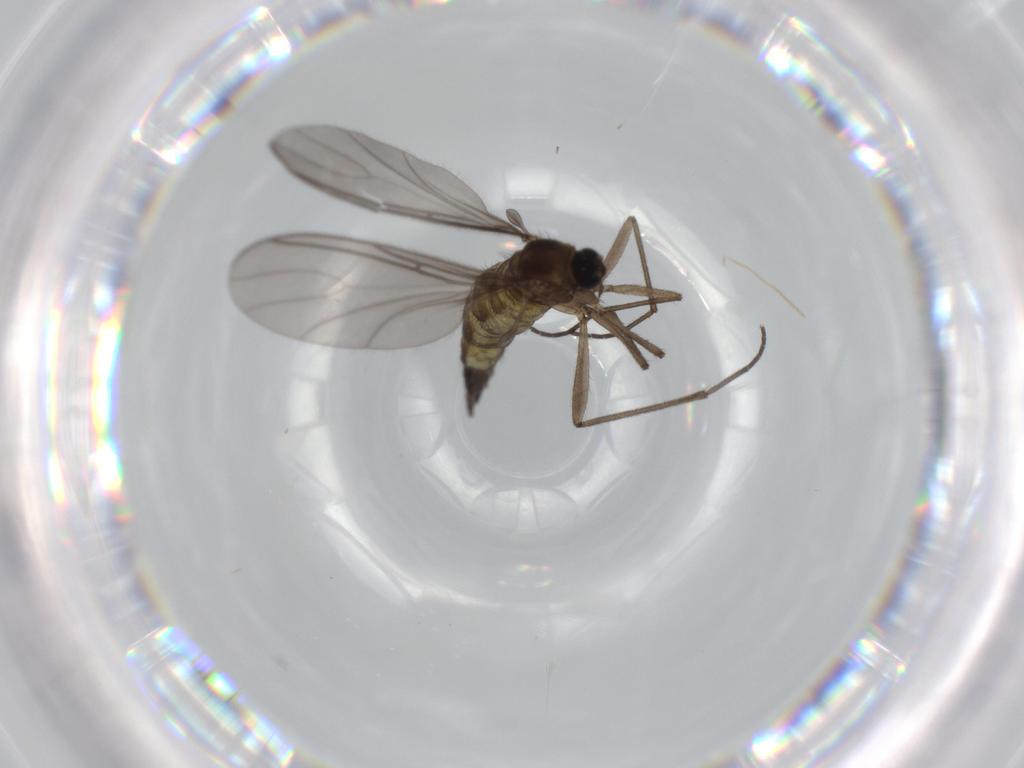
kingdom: Animalia
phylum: Arthropoda
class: Insecta
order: Diptera
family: Sciaridae
